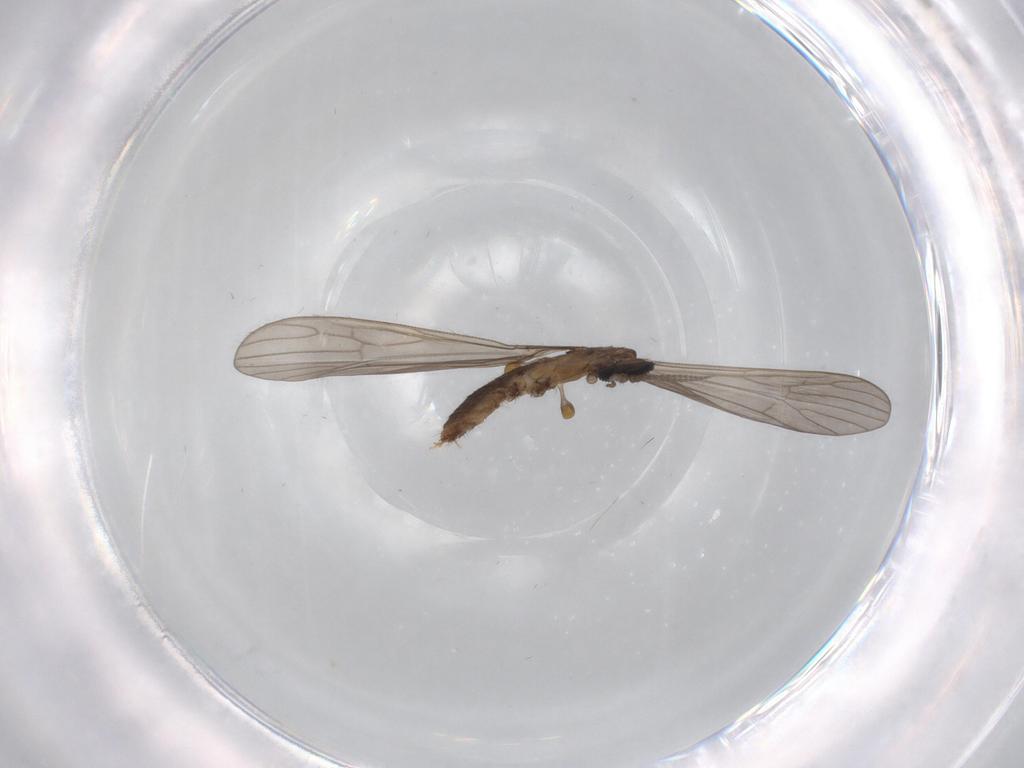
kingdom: Animalia
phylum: Arthropoda
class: Insecta
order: Diptera
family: Limoniidae
